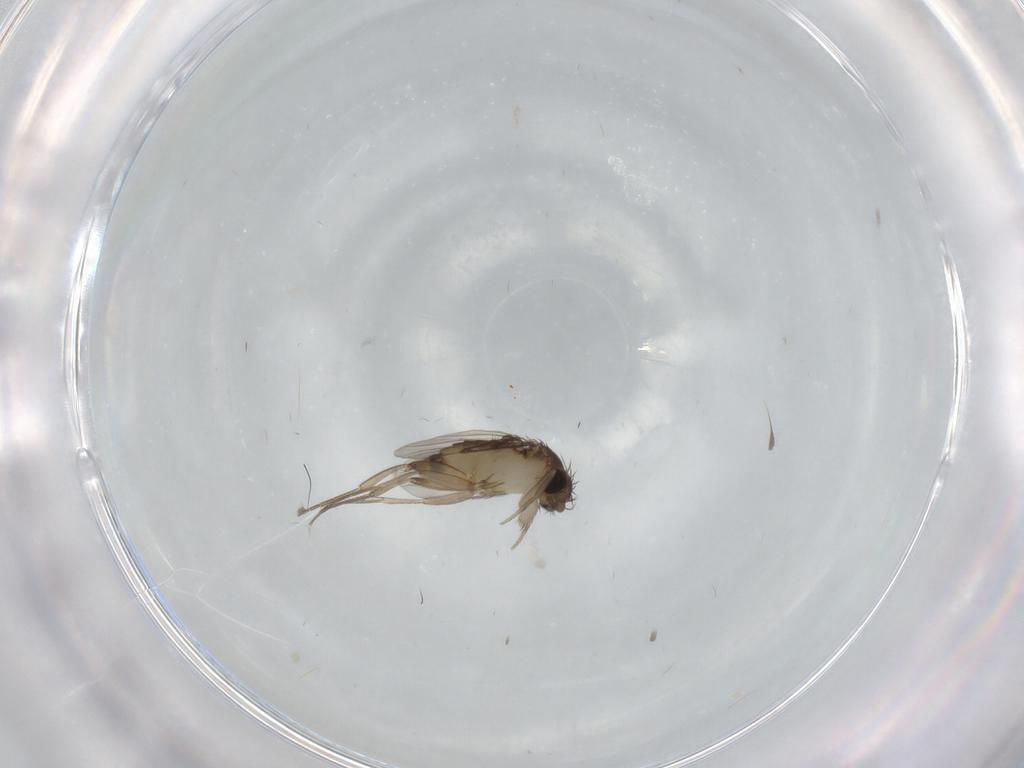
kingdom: Animalia
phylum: Arthropoda
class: Insecta
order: Diptera
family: Phoridae
